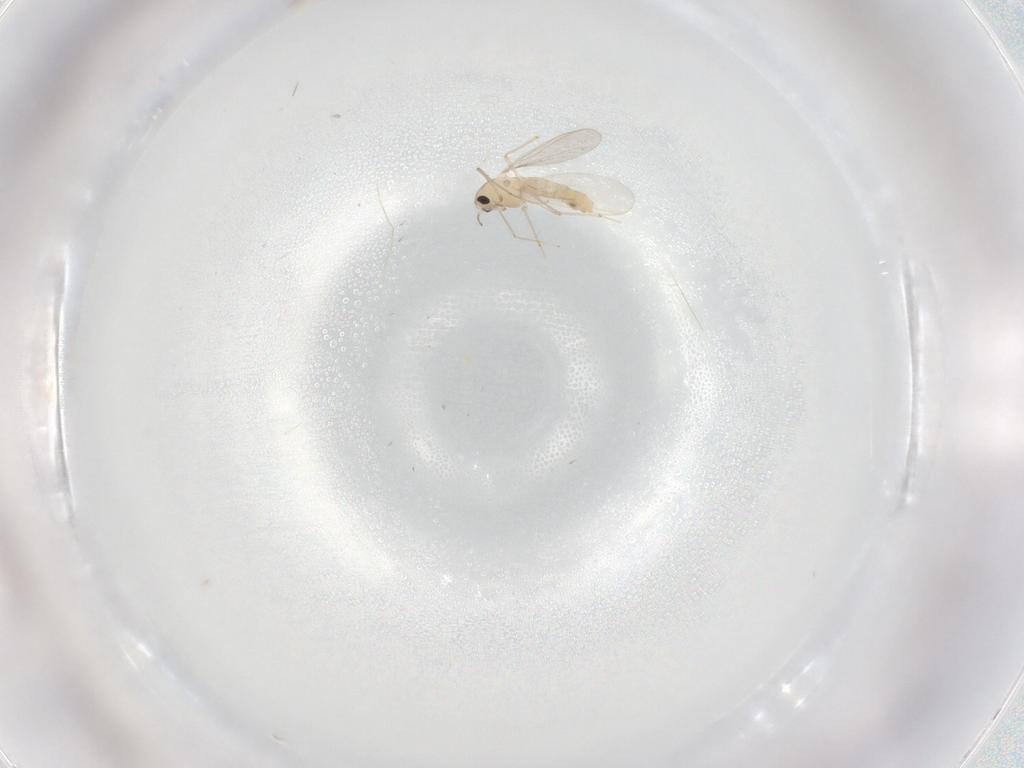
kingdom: Animalia
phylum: Arthropoda
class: Insecta
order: Diptera
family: Chironomidae
